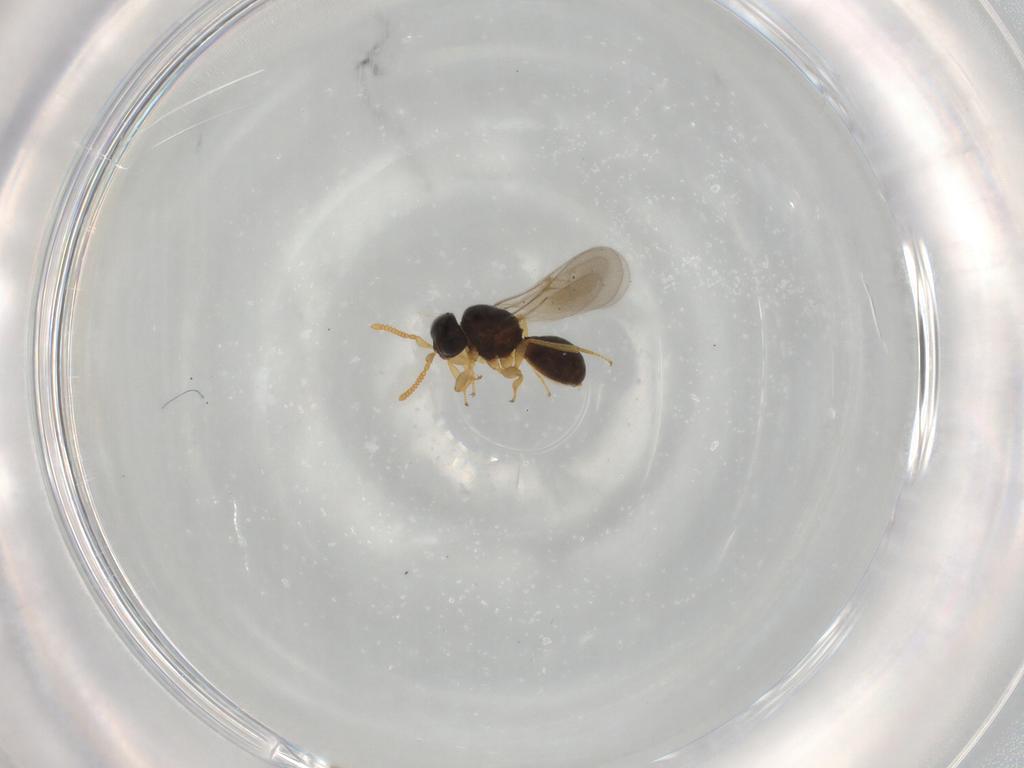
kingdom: Animalia
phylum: Arthropoda
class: Insecta
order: Hymenoptera
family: Scelionidae
